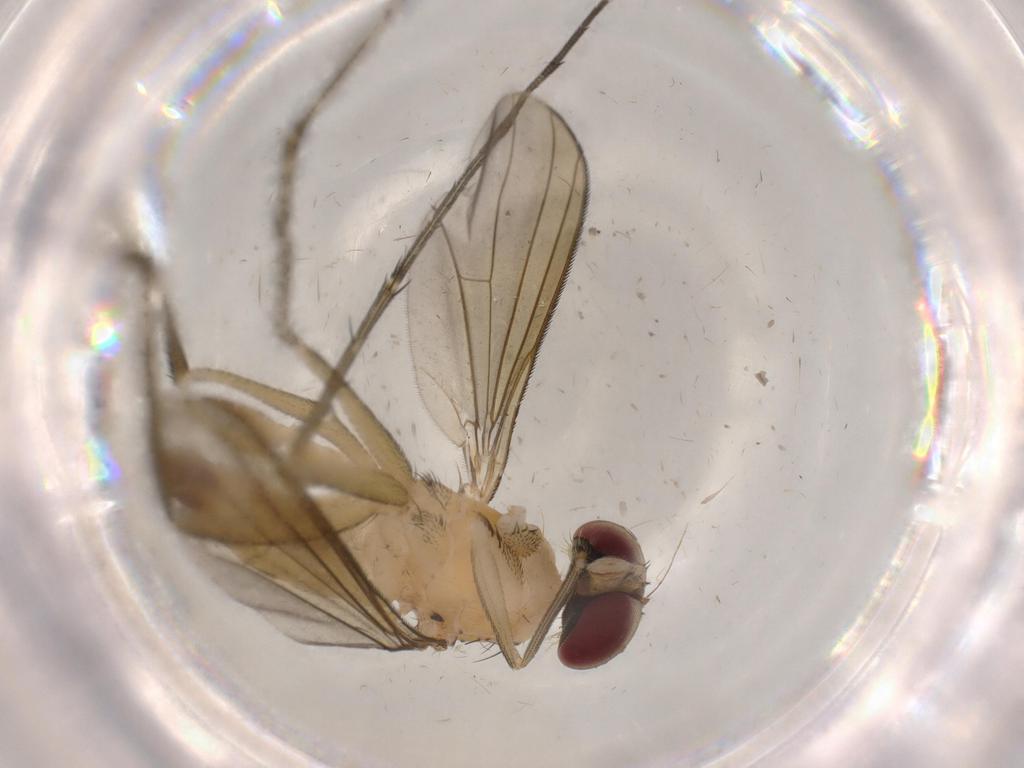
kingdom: Animalia
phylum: Arthropoda
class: Insecta
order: Diptera
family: Dolichopodidae
